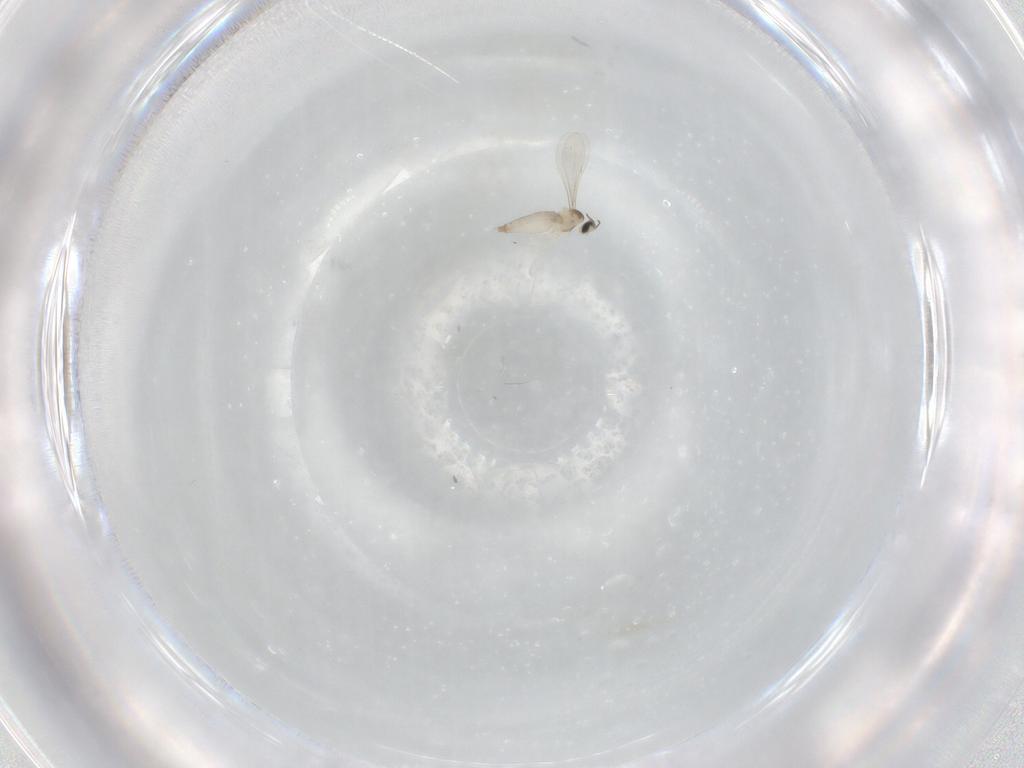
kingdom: Animalia
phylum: Arthropoda
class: Insecta
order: Diptera
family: Cecidomyiidae
